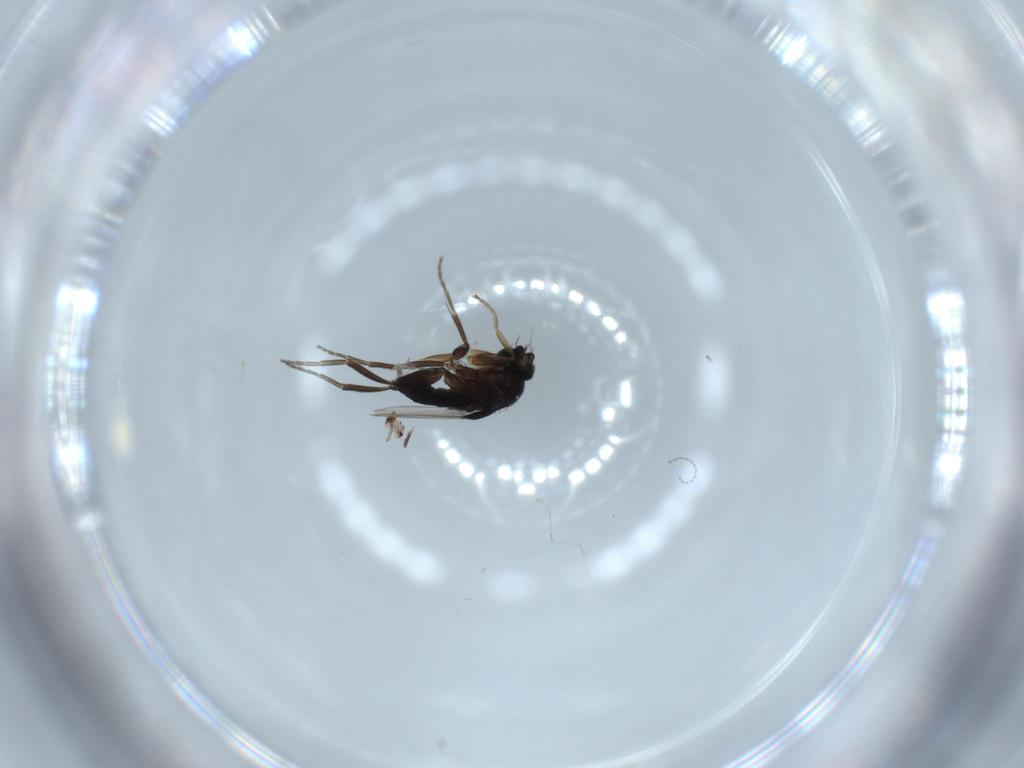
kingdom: Animalia
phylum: Arthropoda
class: Insecta
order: Diptera
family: Phoridae
